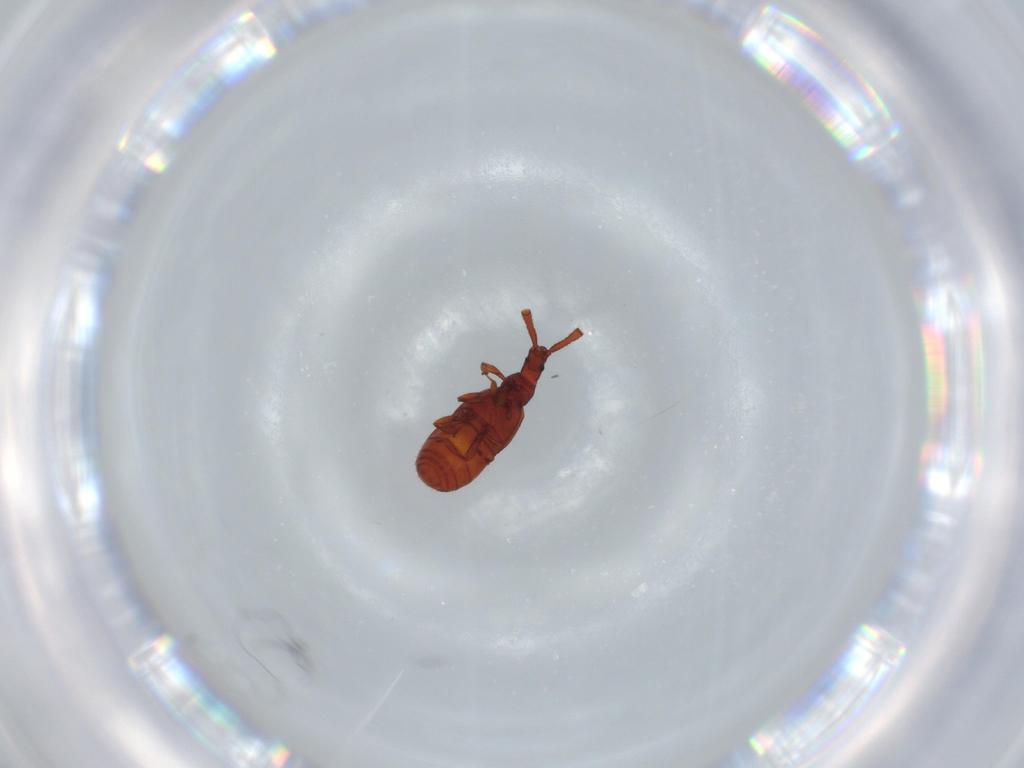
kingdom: Animalia
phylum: Arthropoda
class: Insecta
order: Coleoptera
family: Staphylinidae
